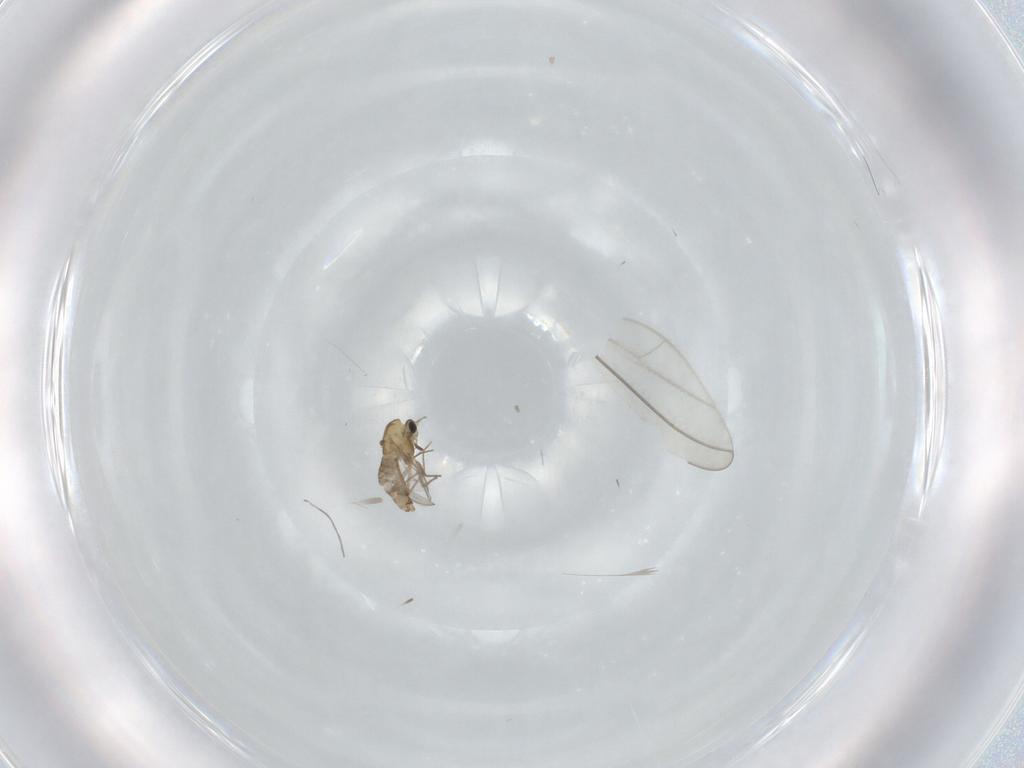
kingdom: Animalia
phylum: Arthropoda
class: Insecta
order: Diptera
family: Chironomidae
